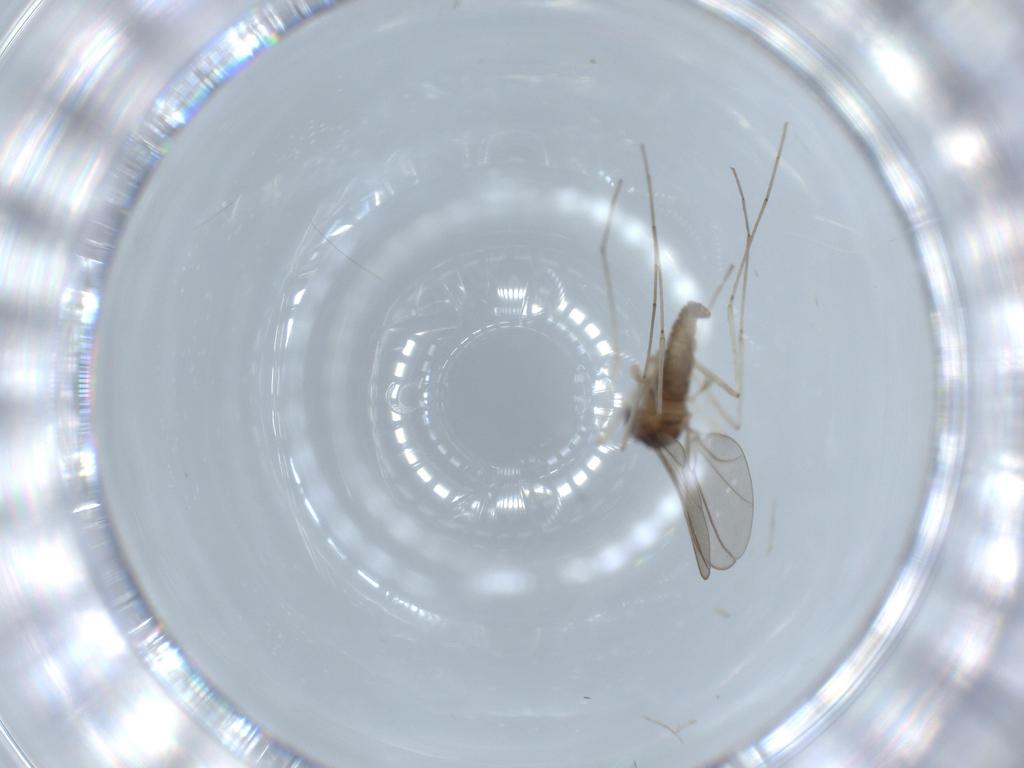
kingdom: Animalia
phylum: Arthropoda
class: Insecta
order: Diptera
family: Cecidomyiidae
